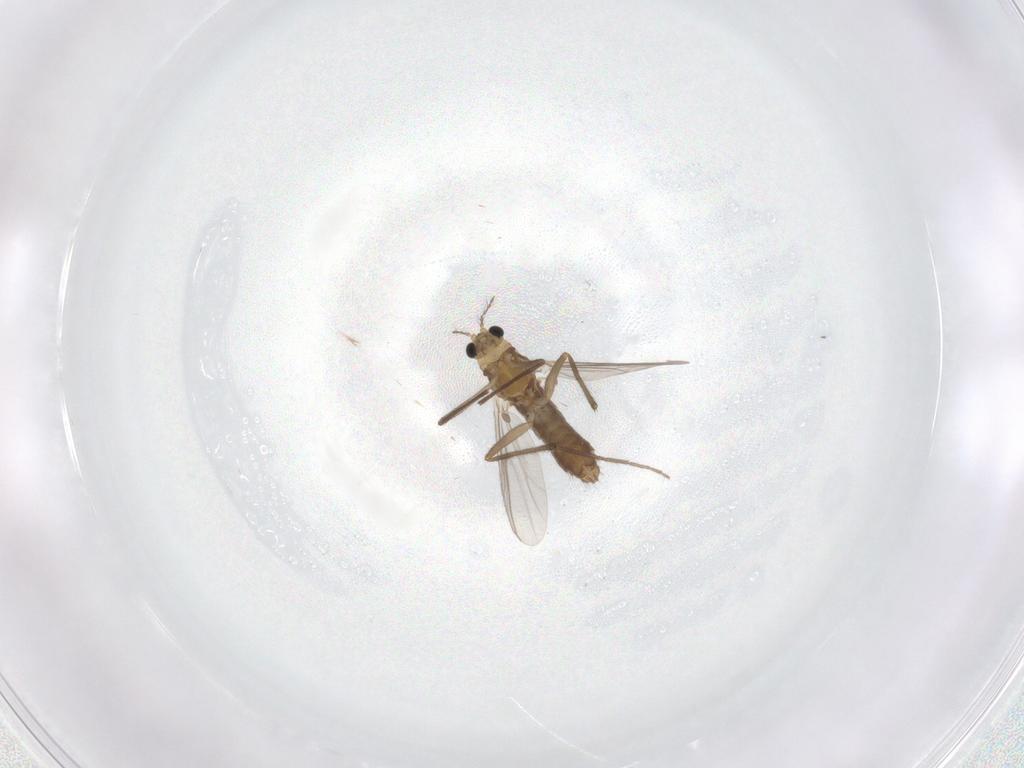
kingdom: Animalia
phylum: Arthropoda
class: Insecta
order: Diptera
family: Chironomidae
